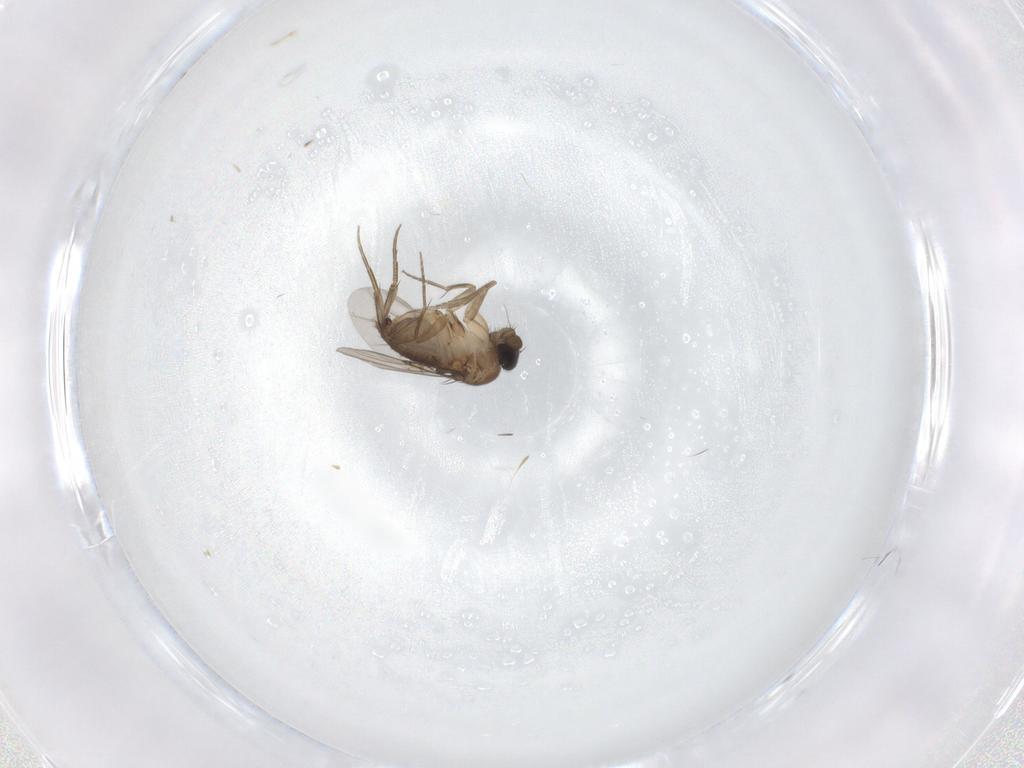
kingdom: Animalia
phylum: Arthropoda
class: Insecta
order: Diptera
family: Phoridae
